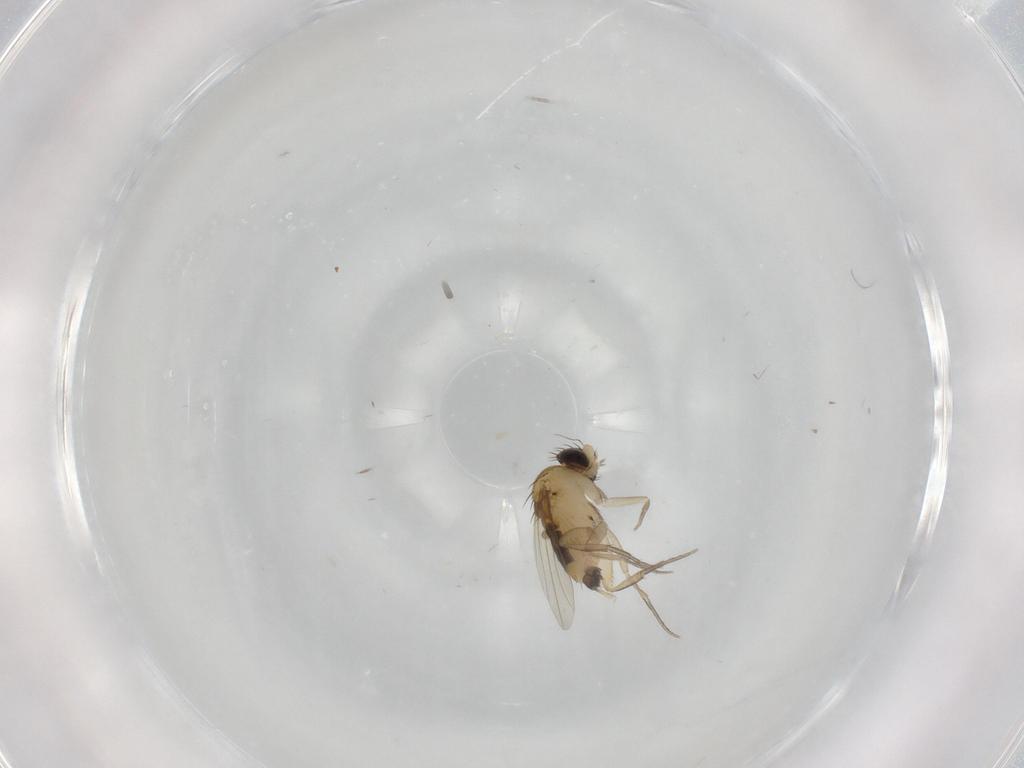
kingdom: Animalia
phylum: Arthropoda
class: Insecta
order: Diptera
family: Phoridae
